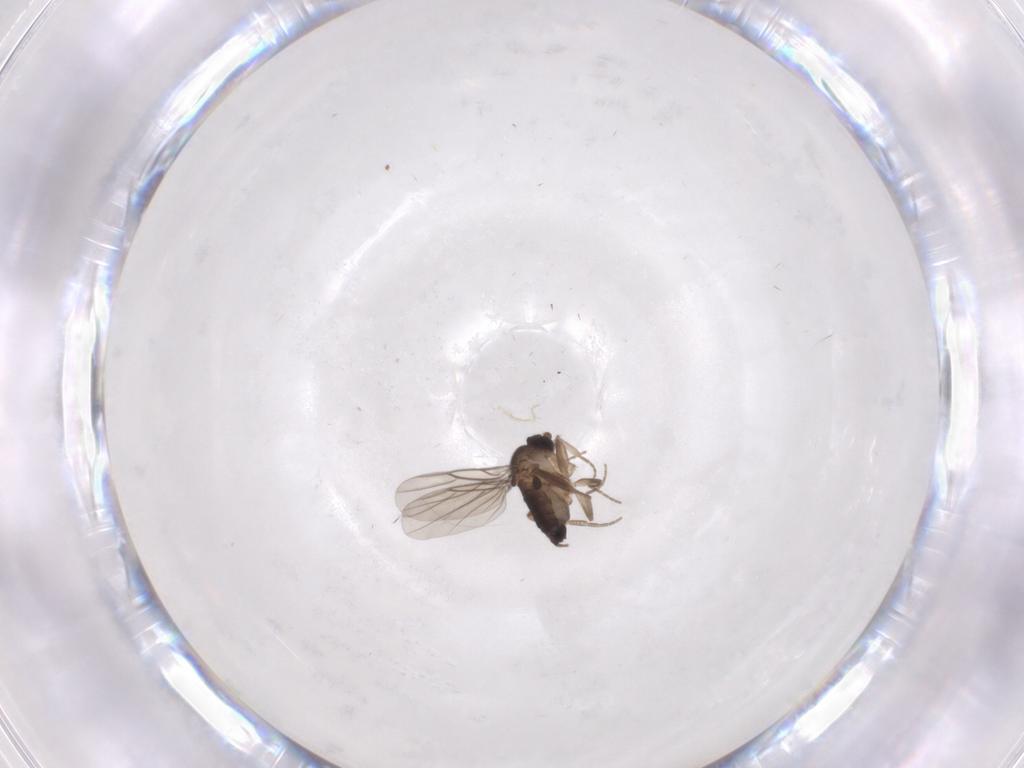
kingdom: Animalia
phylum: Arthropoda
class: Insecta
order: Diptera
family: Phoridae
